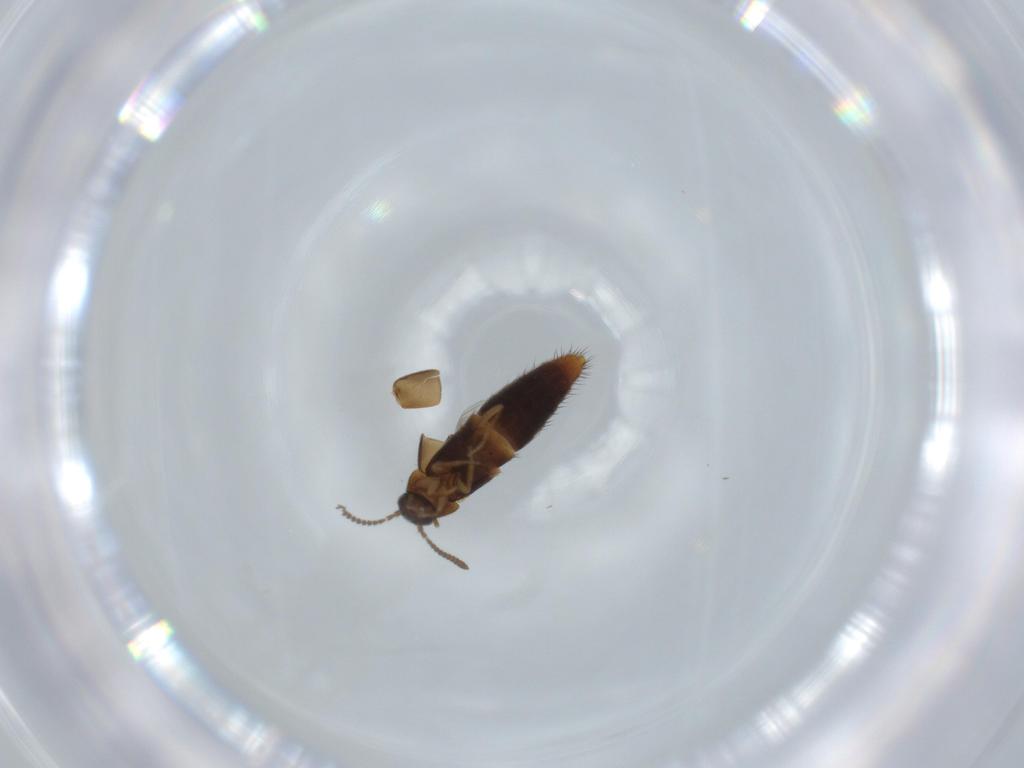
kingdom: Animalia
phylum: Arthropoda
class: Insecta
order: Coleoptera
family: Staphylinidae
